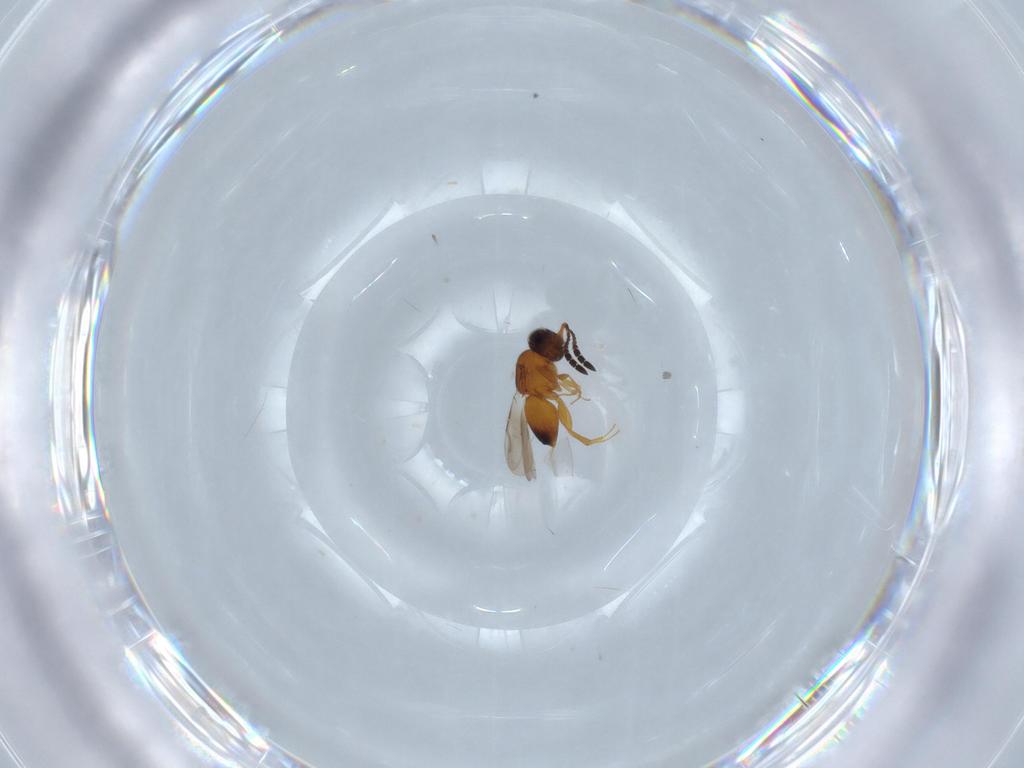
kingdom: Animalia
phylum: Arthropoda
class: Insecta
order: Hymenoptera
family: Ceraphronidae
